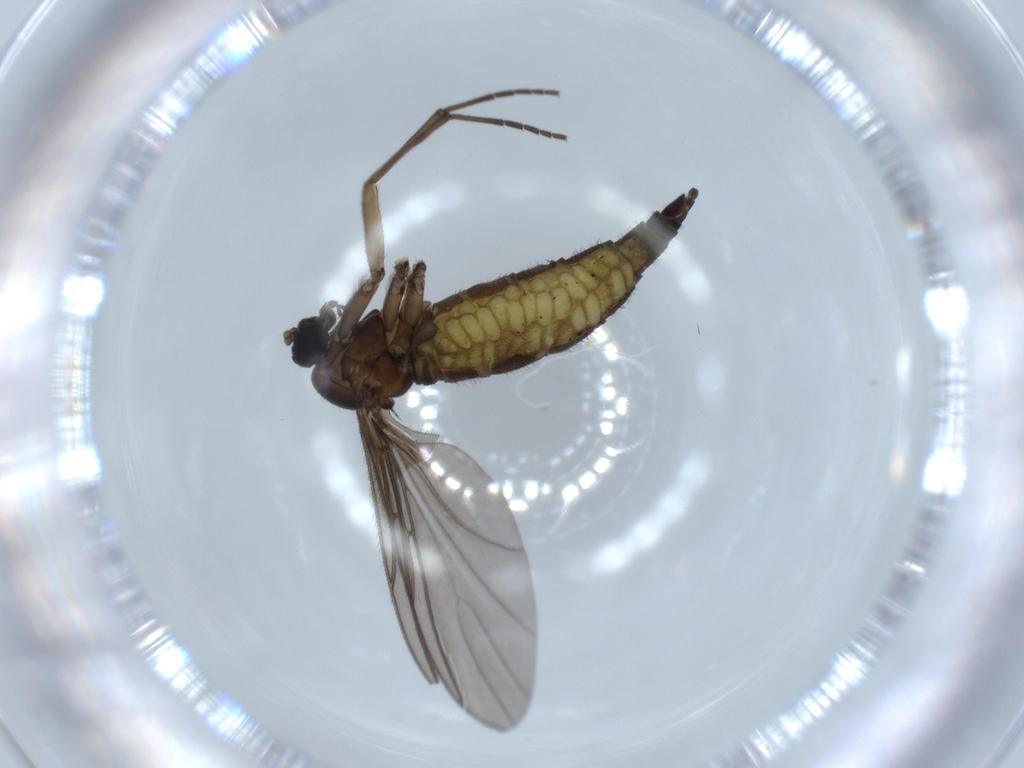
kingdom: Animalia
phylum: Arthropoda
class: Insecta
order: Diptera
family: Sciaridae
